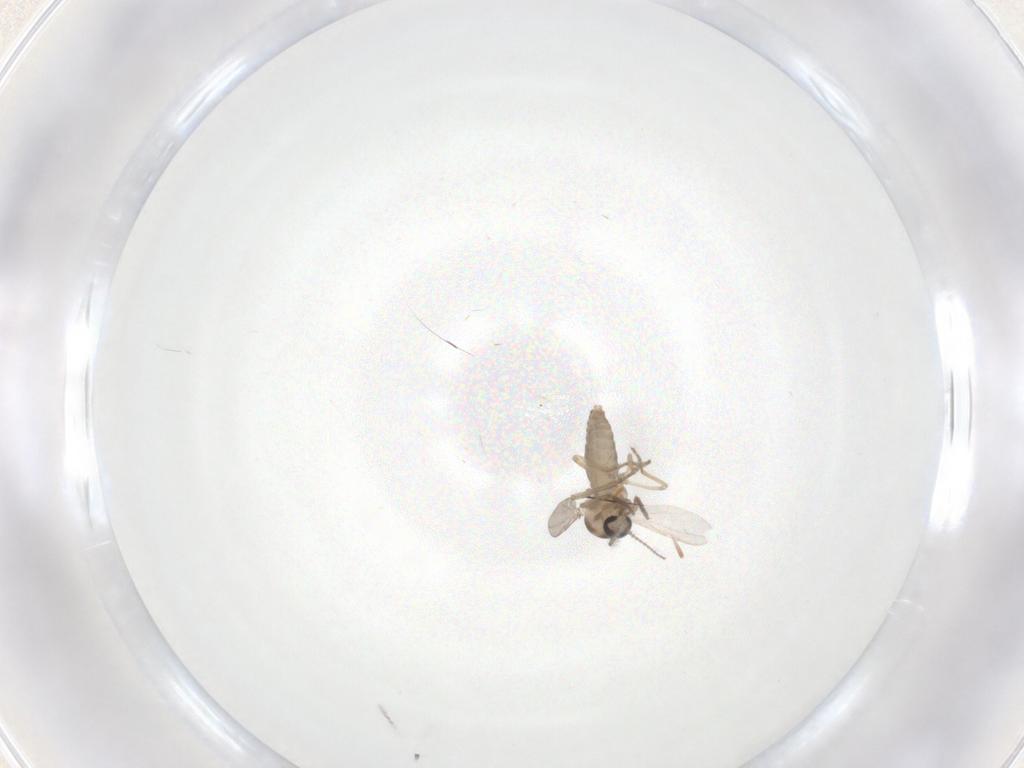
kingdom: Animalia
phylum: Arthropoda
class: Insecta
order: Diptera
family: Ceratopogonidae
